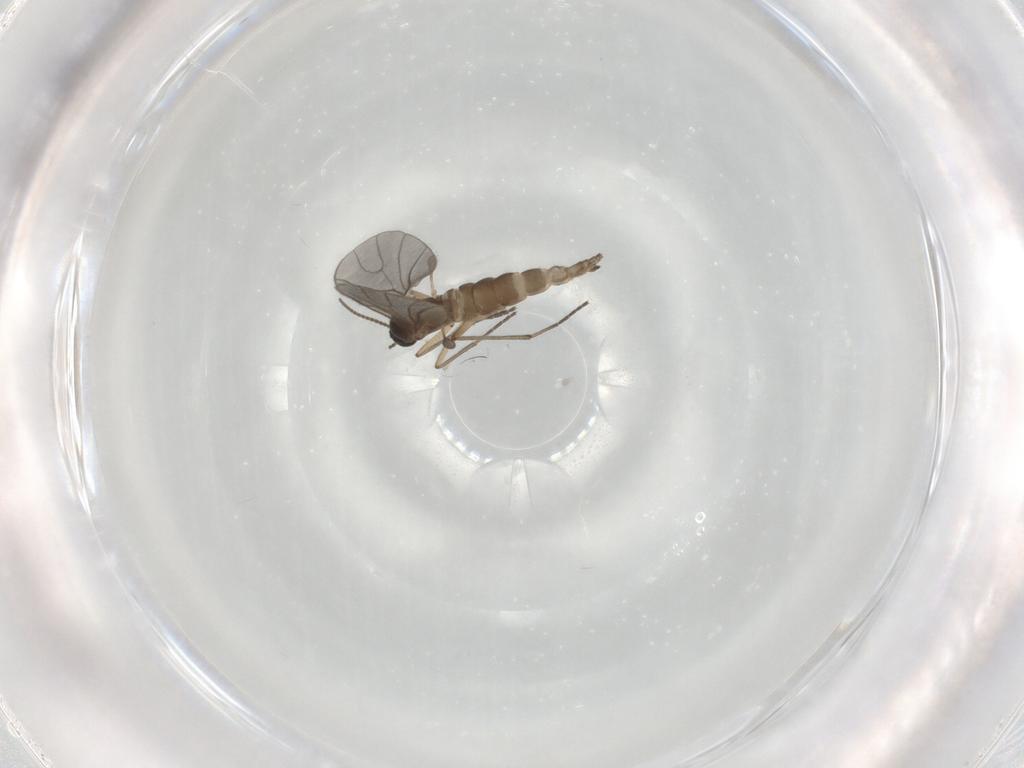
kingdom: Animalia
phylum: Arthropoda
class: Insecta
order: Diptera
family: Sciaridae
